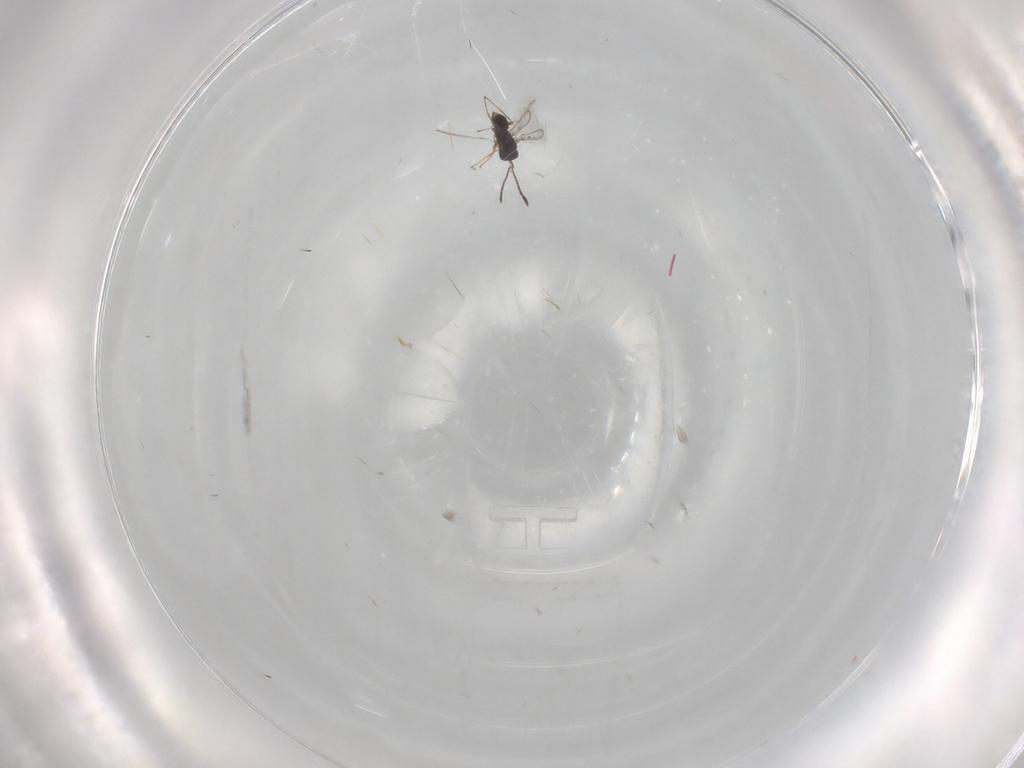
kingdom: Animalia
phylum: Arthropoda
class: Insecta
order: Hymenoptera
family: Mymaridae
